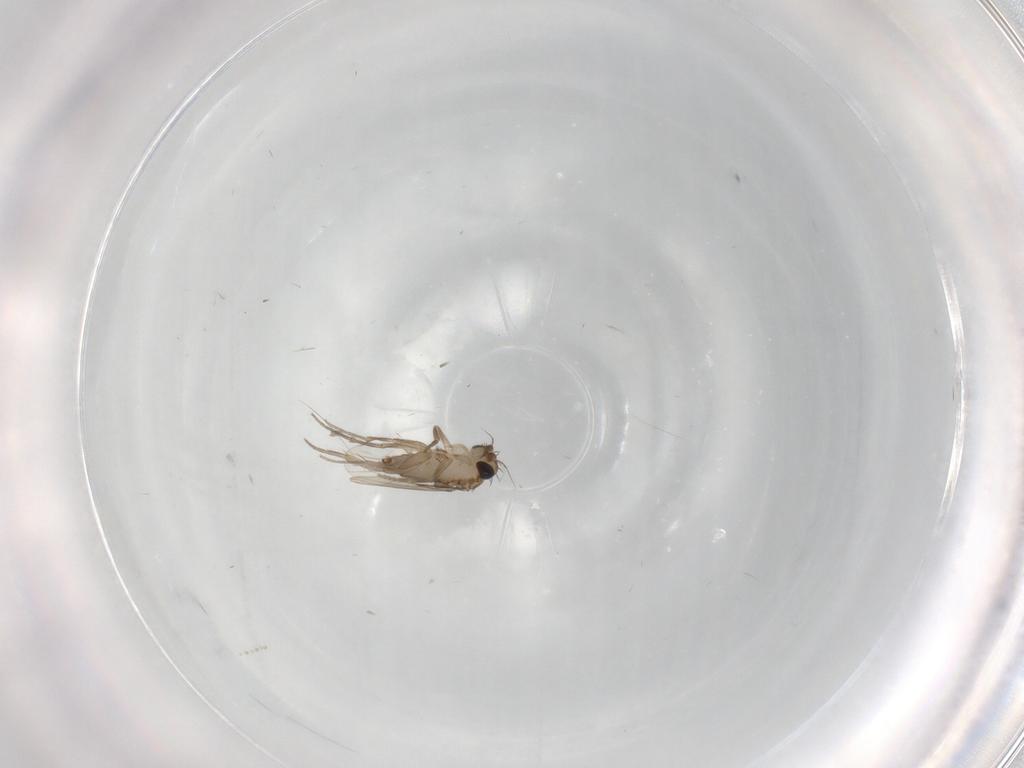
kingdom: Animalia
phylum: Arthropoda
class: Insecta
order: Diptera
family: Phoridae
